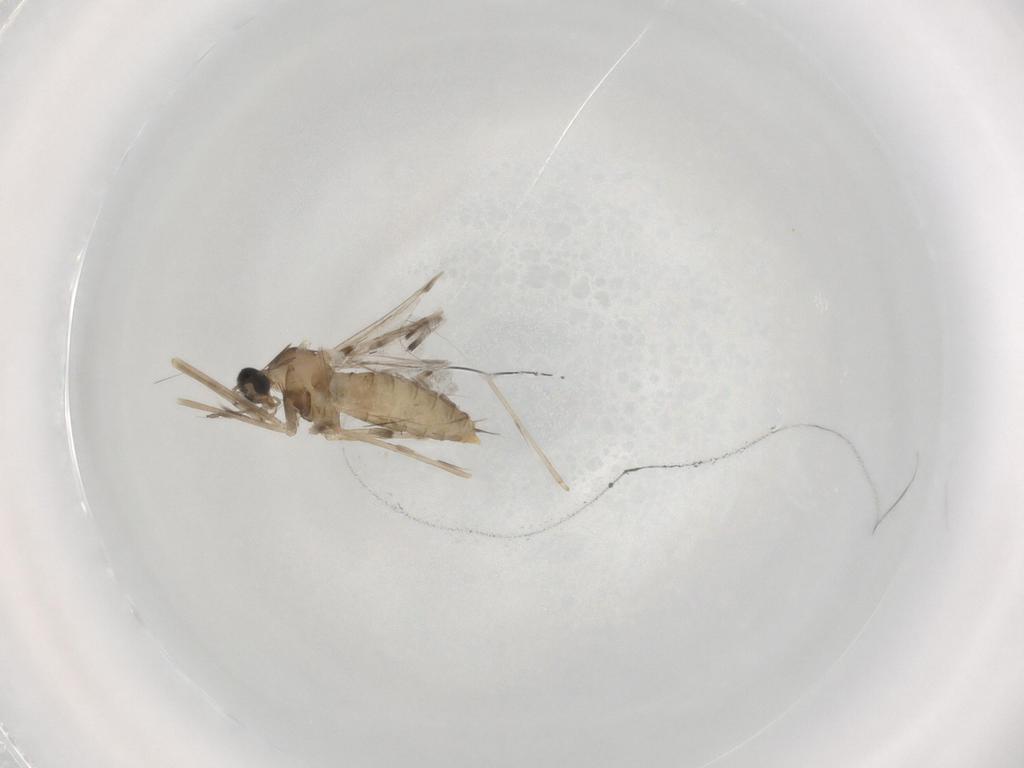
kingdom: Animalia
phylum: Arthropoda
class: Insecta
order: Diptera
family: Cecidomyiidae
